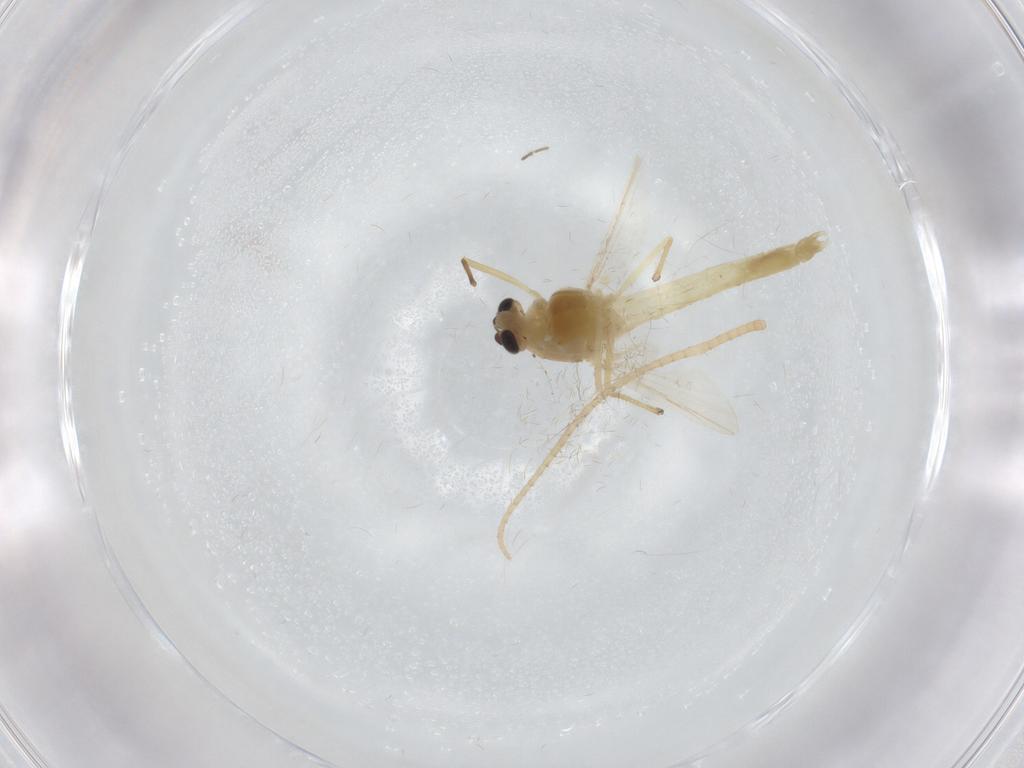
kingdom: Animalia
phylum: Arthropoda
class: Insecta
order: Diptera
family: Chironomidae
